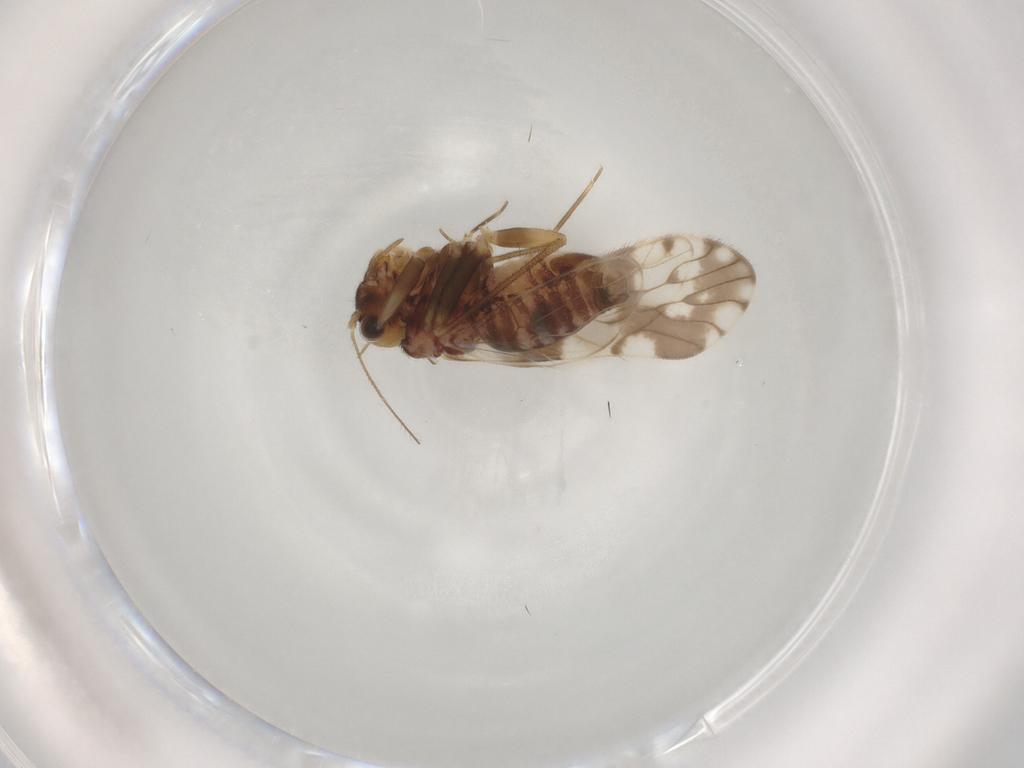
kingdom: Animalia
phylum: Arthropoda
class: Insecta
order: Psocodea
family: Epipsocidae
